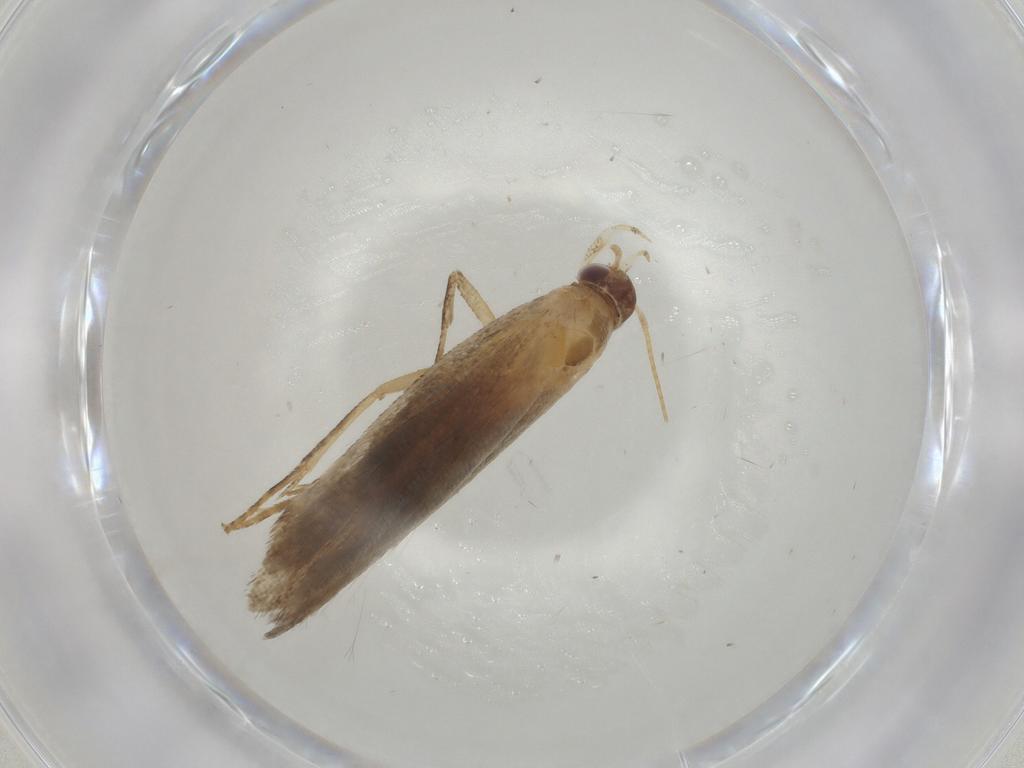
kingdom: Animalia
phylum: Arthropoda
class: Insecta
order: Lepidoptera
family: Gelechiidae
